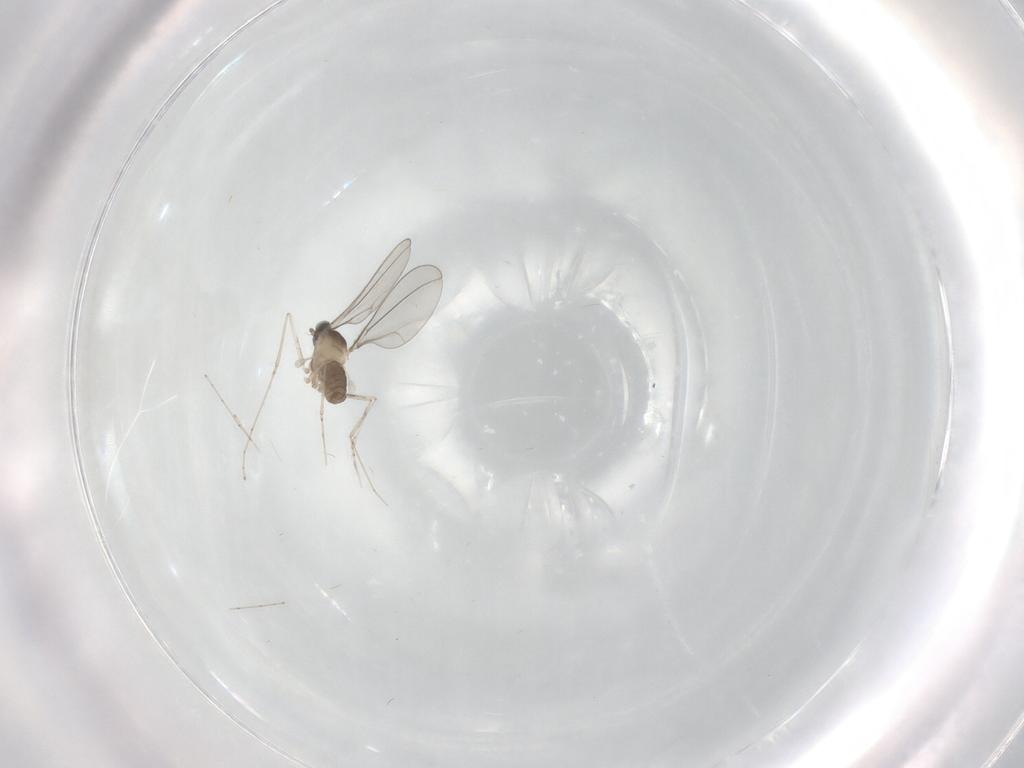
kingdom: Animalia
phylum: Arthropoda
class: Insecta
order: Diptera
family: Cecidomyiidae
